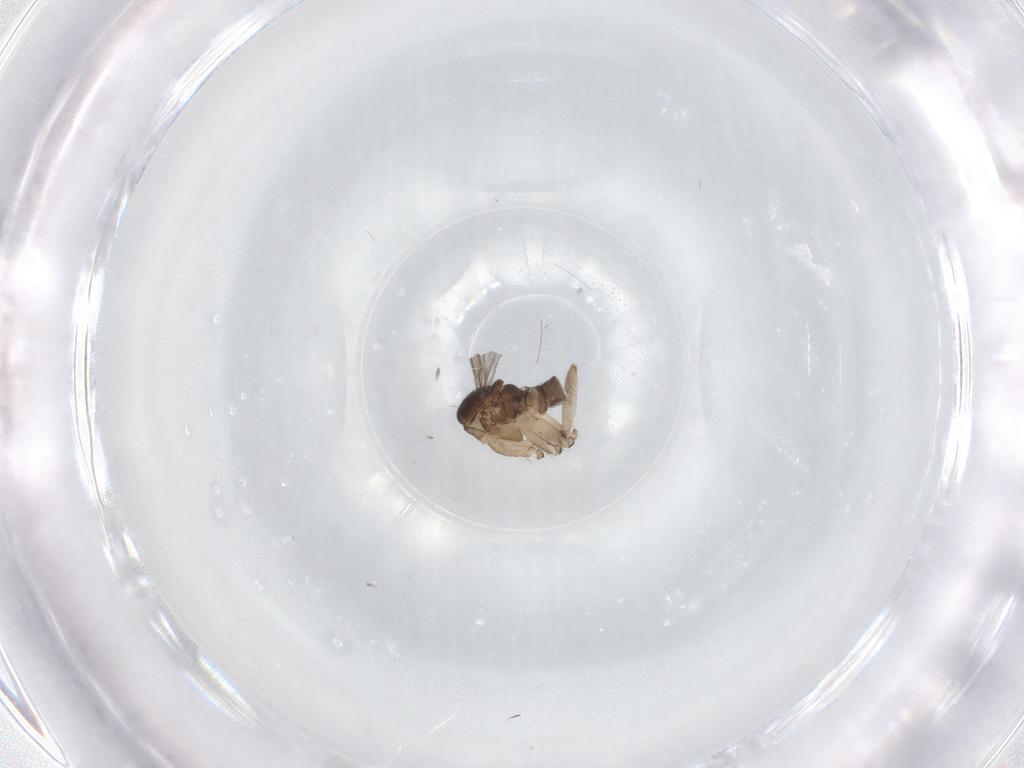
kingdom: Animalia
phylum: Arthropoda
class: Insecta
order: Diptera
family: Sciaridae
